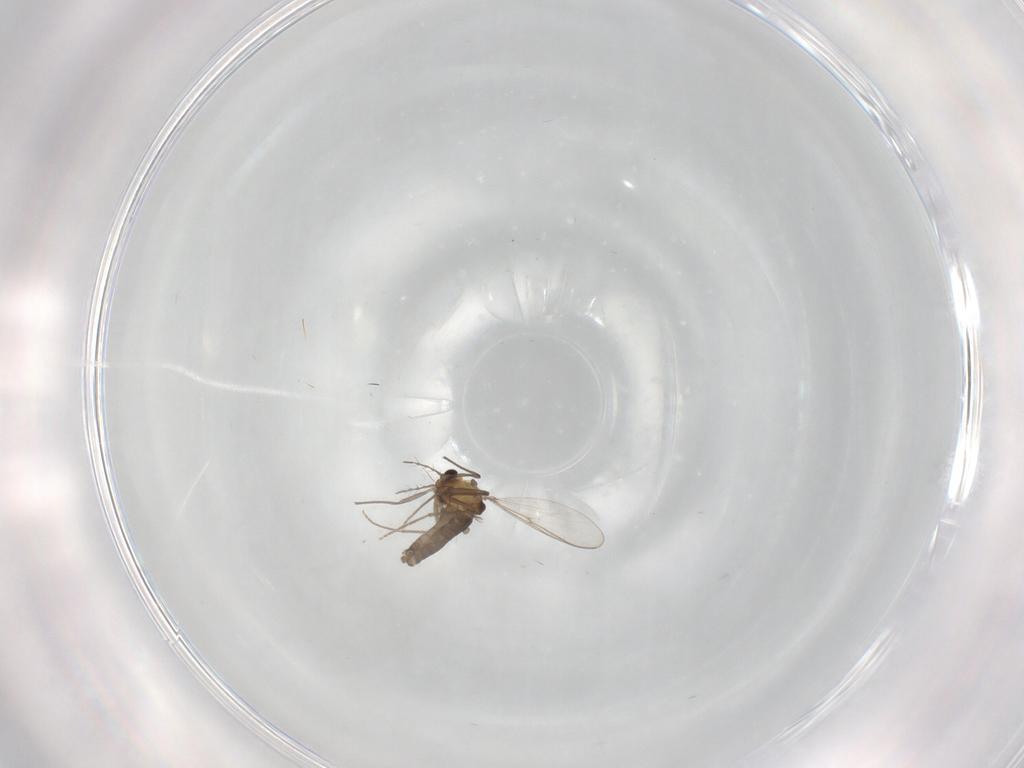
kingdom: Animalia
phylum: Arthropoda
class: Insecta
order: Diptera
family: Chironomidae
